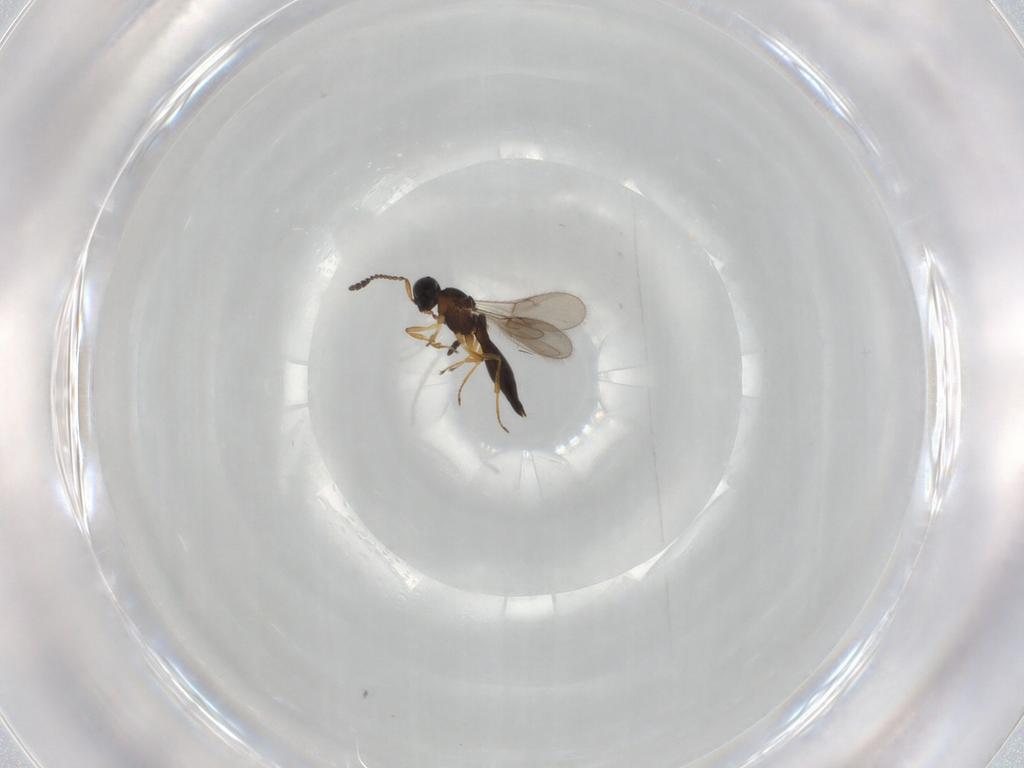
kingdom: Animalia
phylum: Arthropoda
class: Insecta
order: Hymenoptera
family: Scelionidae
